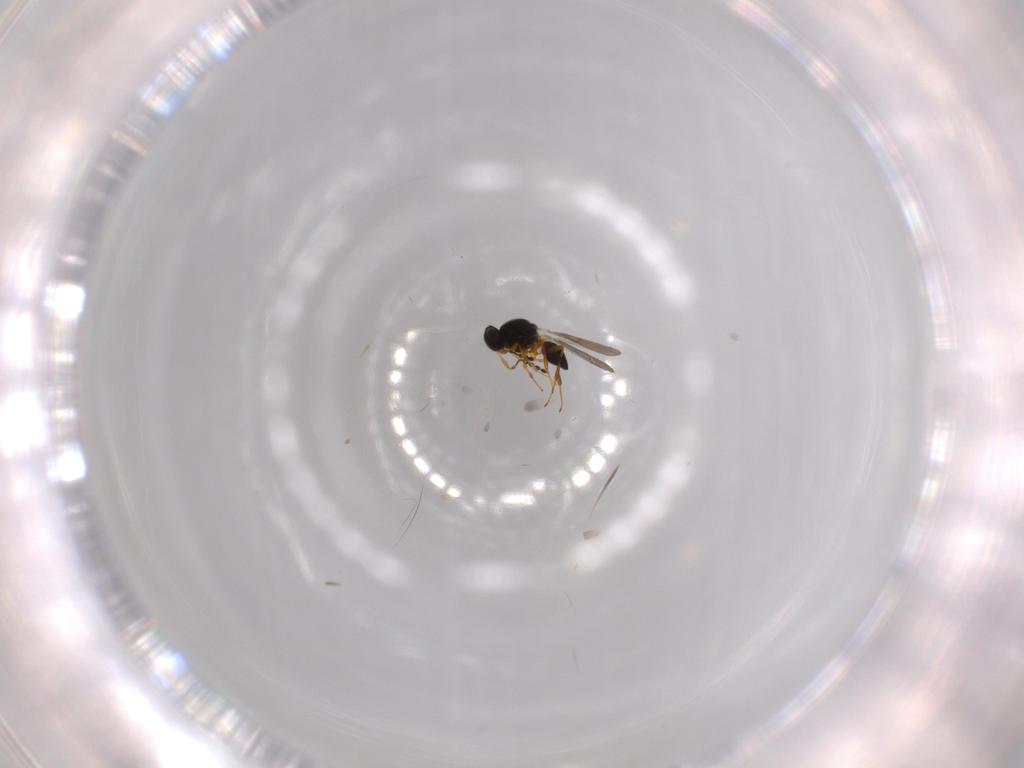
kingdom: Animalia
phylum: Arthropoda
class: Insecta
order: Hymenoptera
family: Platygastridae
